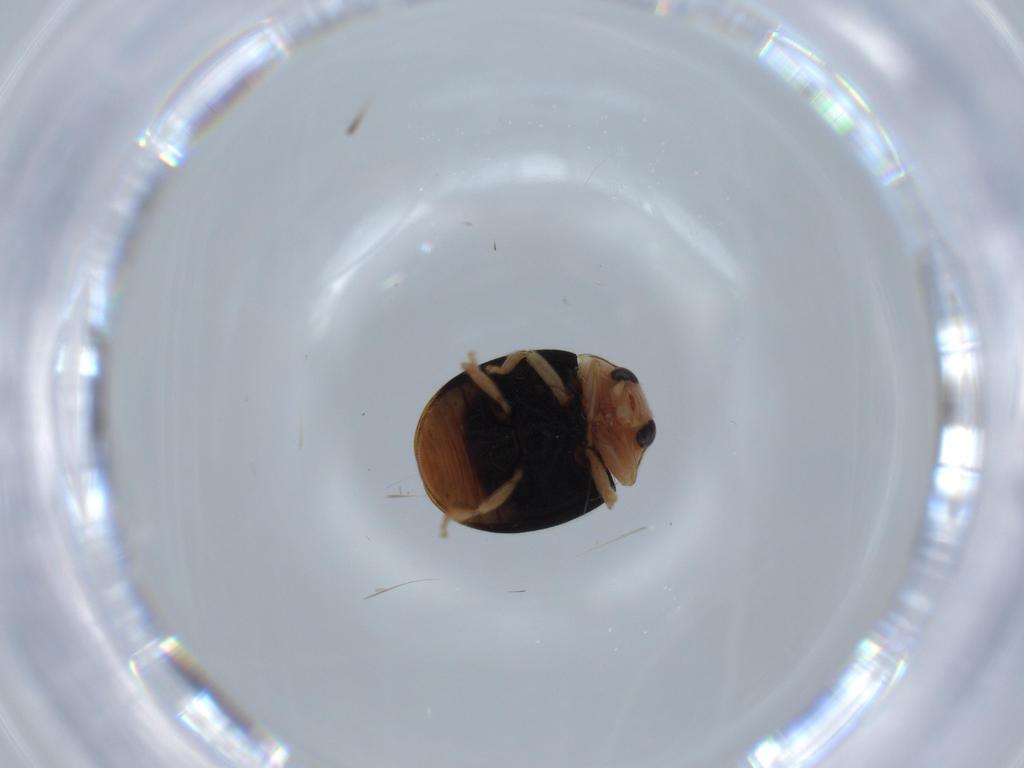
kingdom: Animalia
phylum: Arthropoda
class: Insecta
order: Coleoptera
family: Coccinellidae
